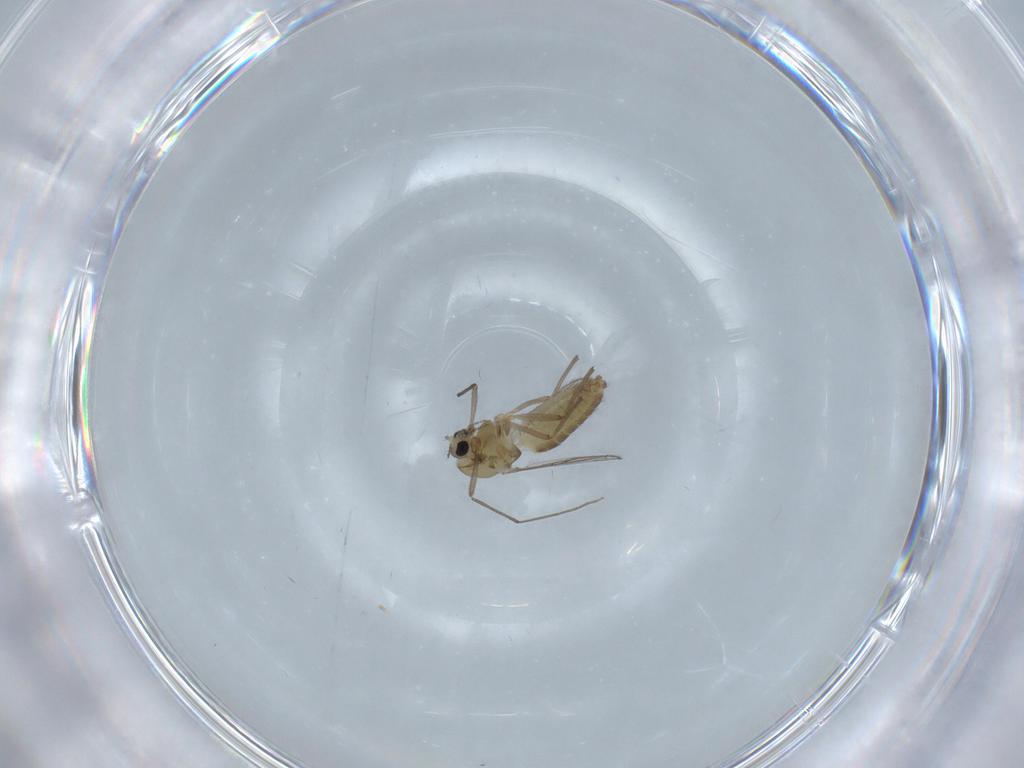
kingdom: Animalia
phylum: Arthropoda
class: Insecta
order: Diptera
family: Chironomidae
